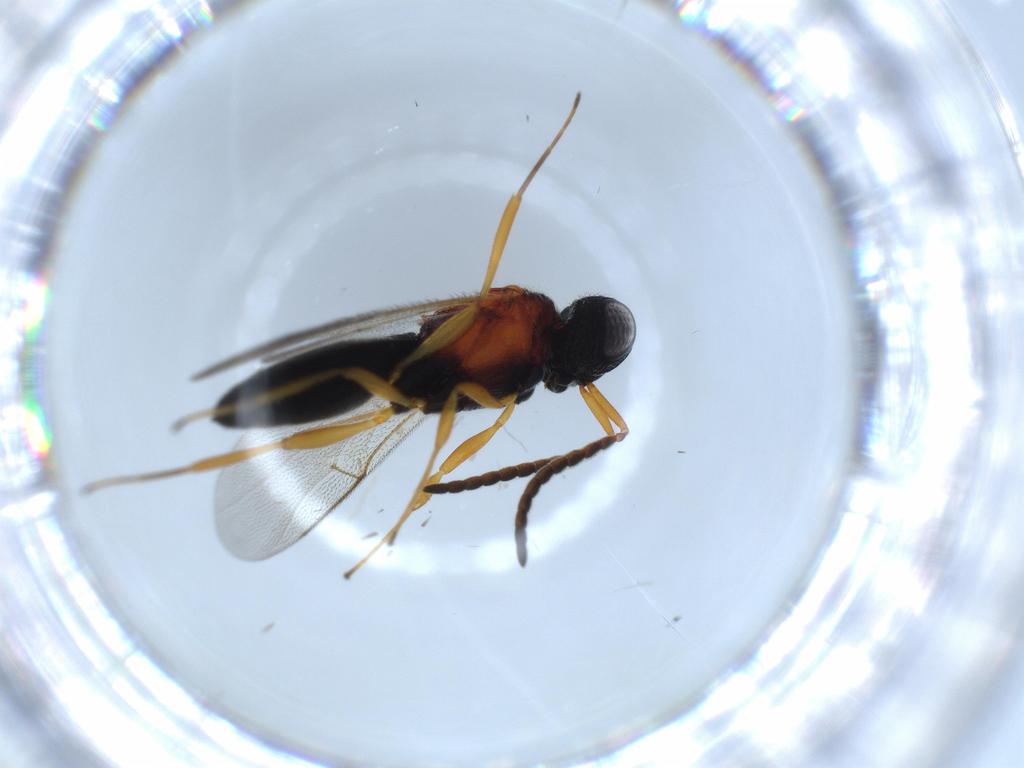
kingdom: Animalia
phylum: Arthropoda
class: Insecta
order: Hymenoptera
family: Scelionidae
